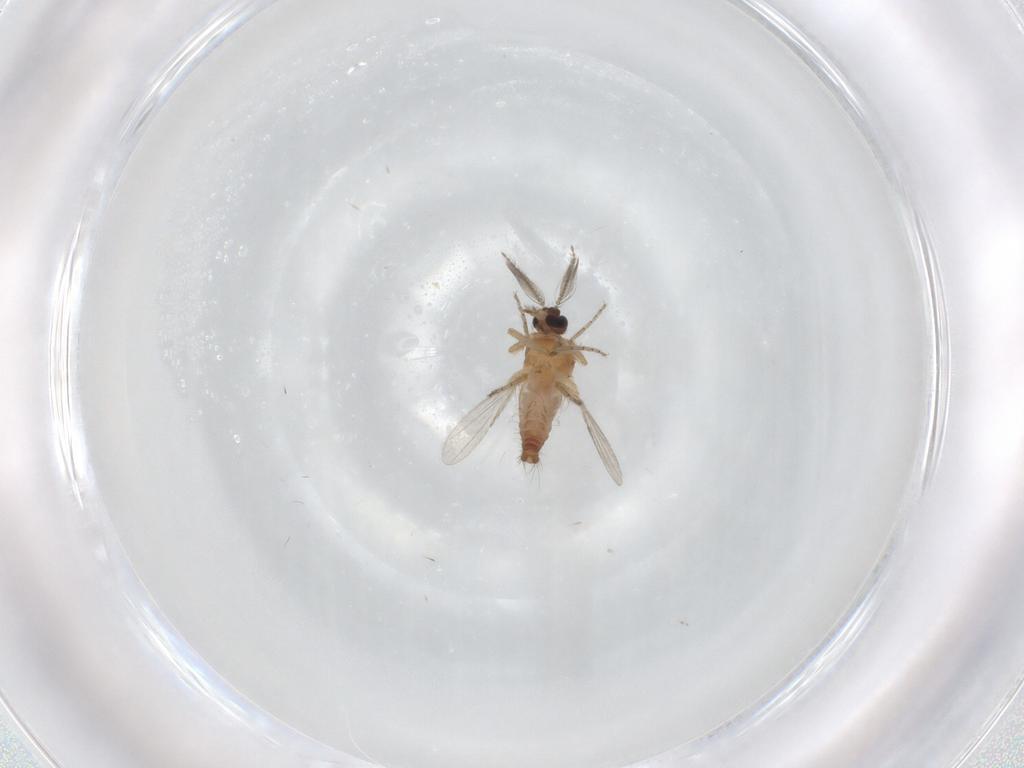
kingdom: Animalia
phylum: Arthropoda
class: Insecta
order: Diptera
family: Ceratopogonidae
